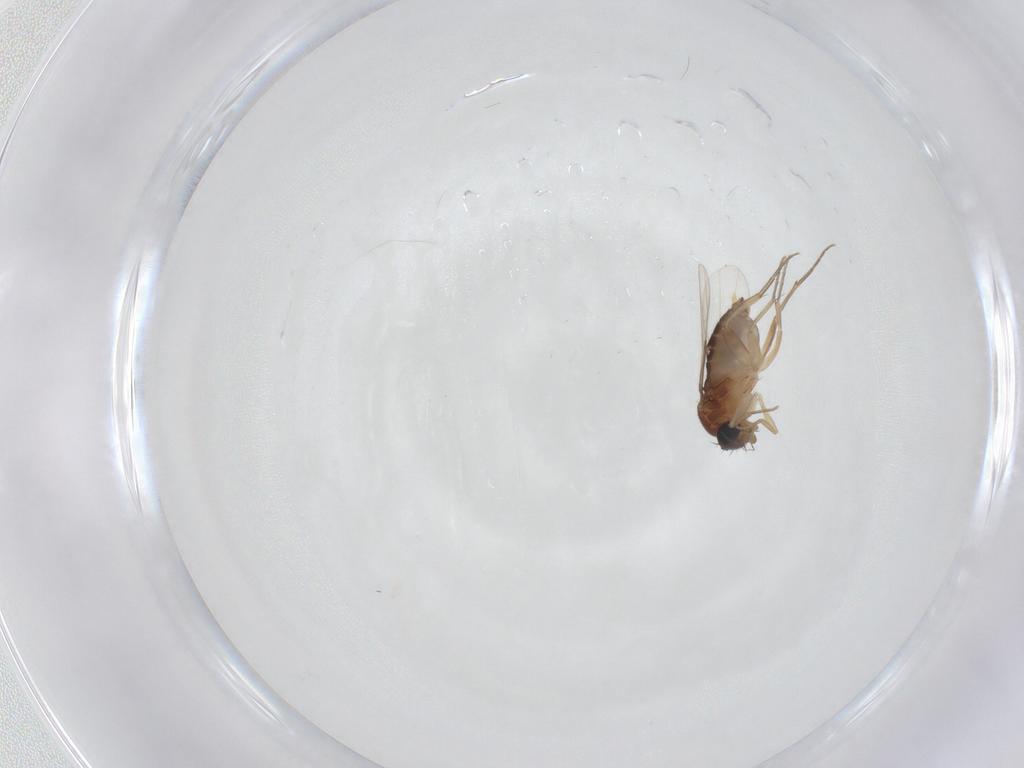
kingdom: Animalia
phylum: Arthropoda
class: Insecta
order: Diptera
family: Phoridae
